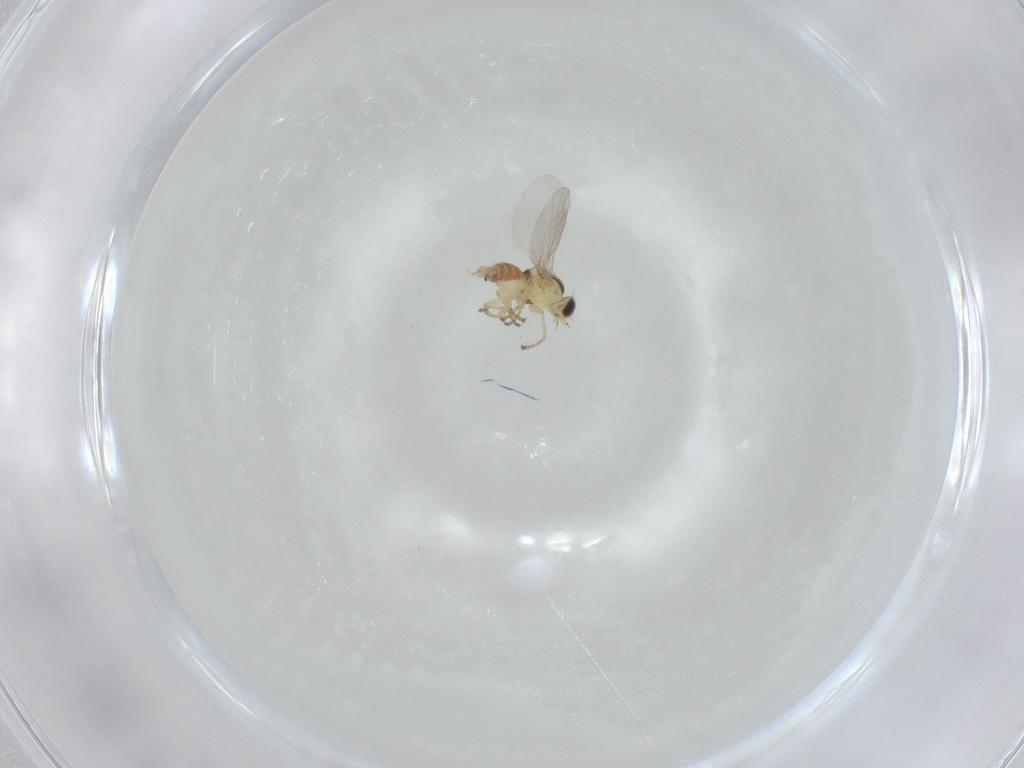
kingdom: Animalia
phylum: Arthropoda
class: Insecta
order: Diptera
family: Agromyzidae
